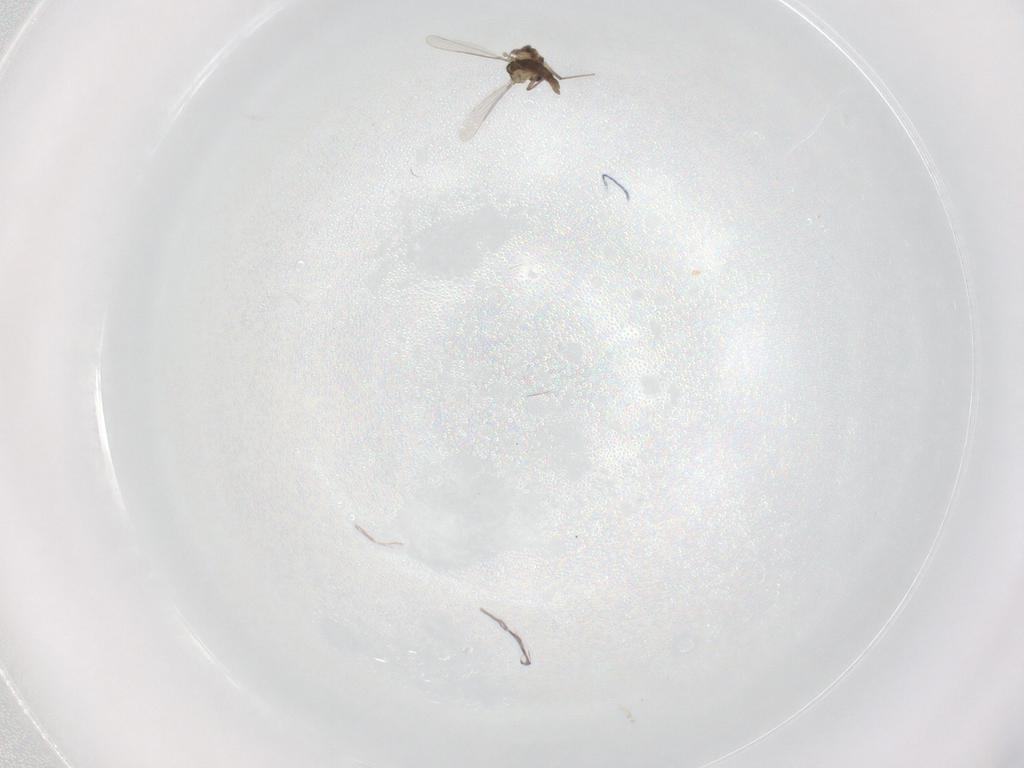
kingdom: Animalia
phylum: Arthropoda
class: Insecta
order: Diptera
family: Chironomidae
